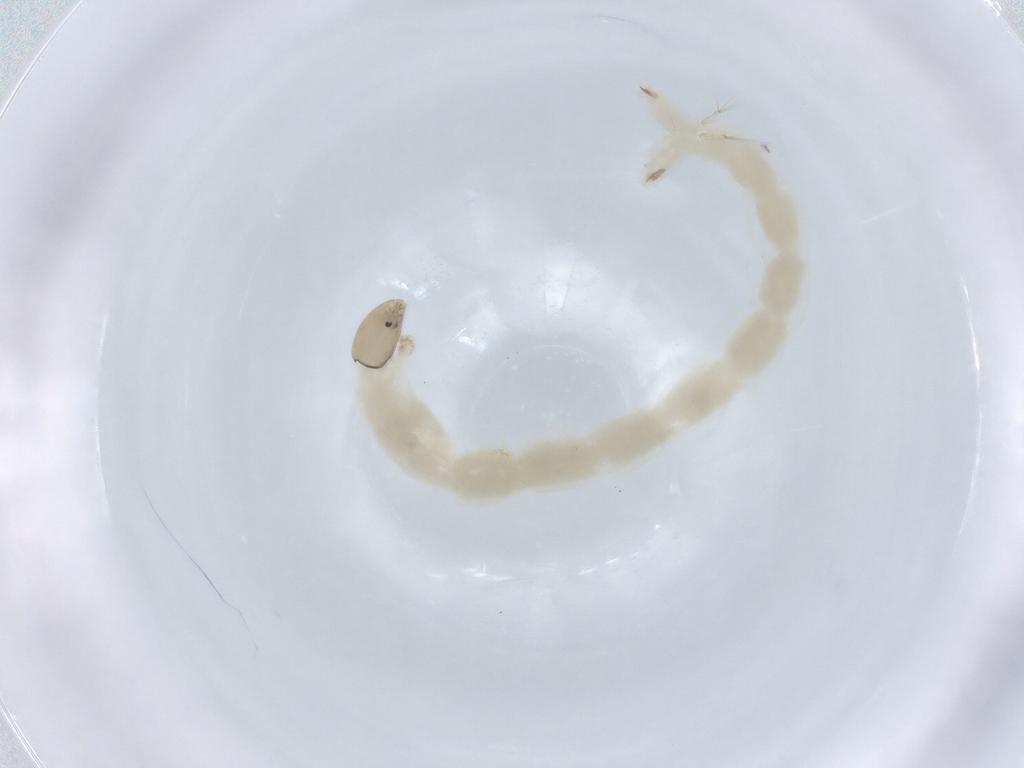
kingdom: Animalia
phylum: Arthropoda
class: Insecta
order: Diptera
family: Chironomidae
